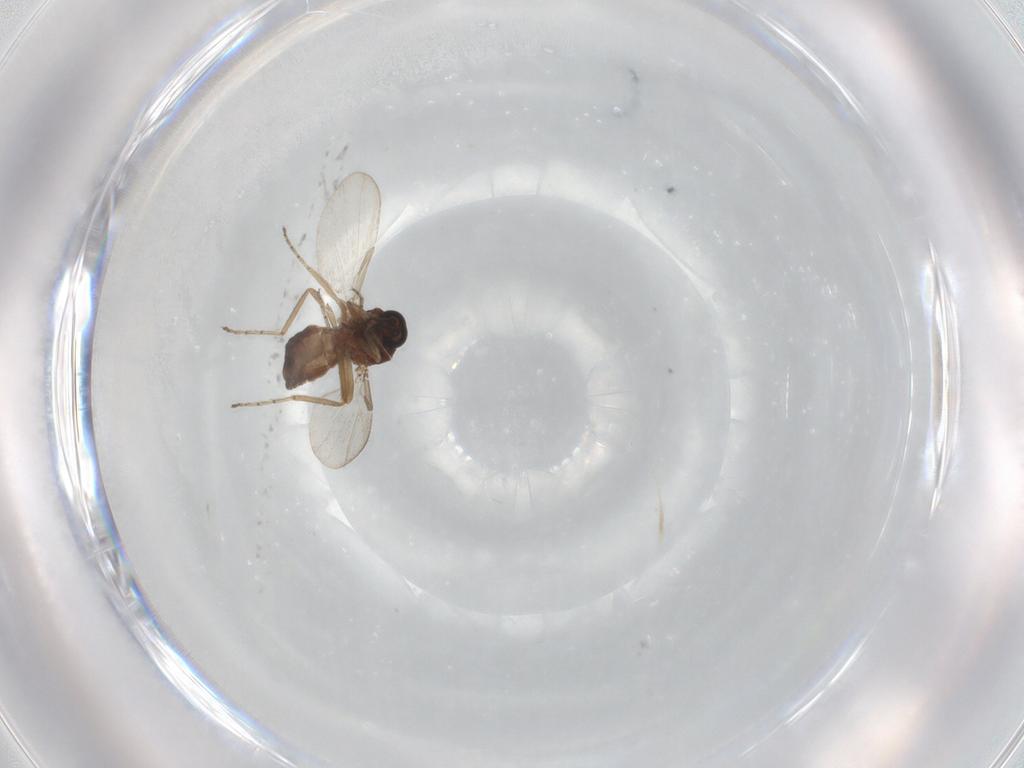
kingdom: Animalia
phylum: Arthropoda
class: Insecta
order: Diptera
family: Ceratopogonidae
